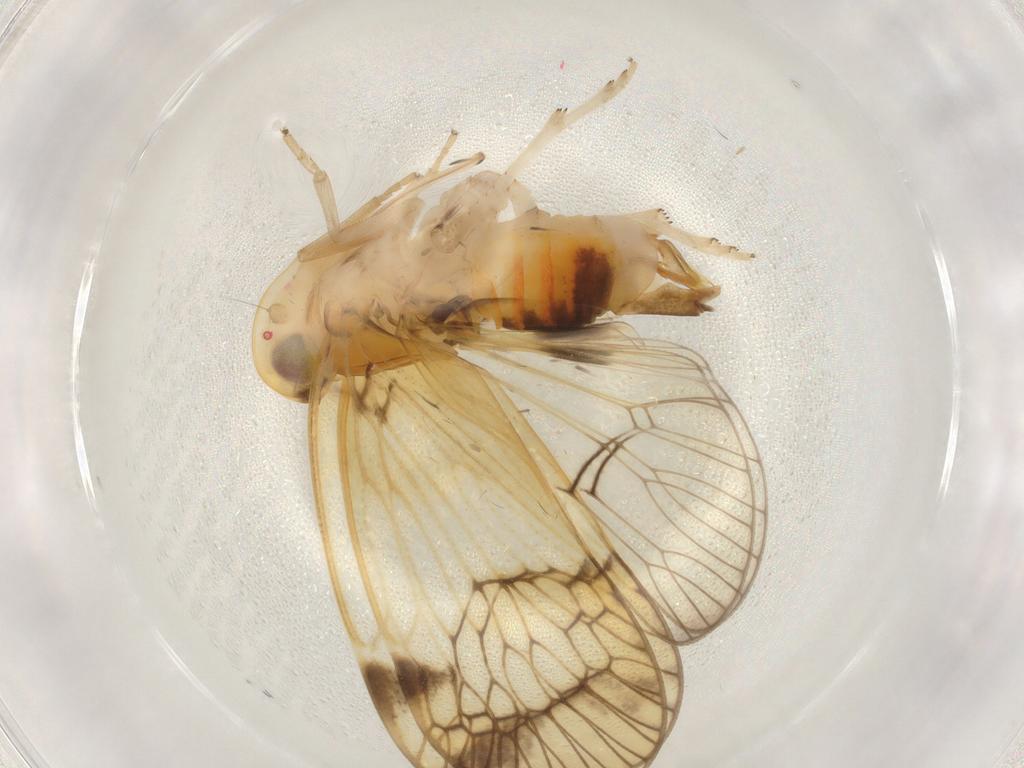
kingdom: Animalia
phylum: Arthropoda
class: Insecta
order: Hemiptera
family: Cixiidae
